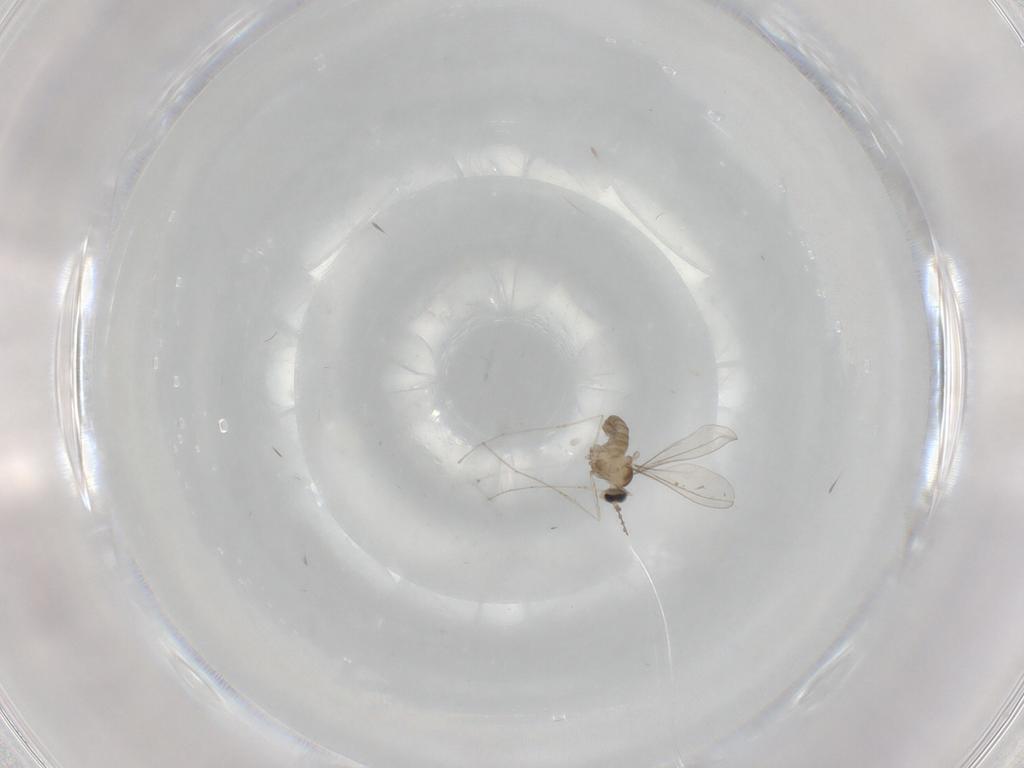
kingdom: Animalia
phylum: Arthropoda
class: Insecta
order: Diptera
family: Cecidomyiidae
